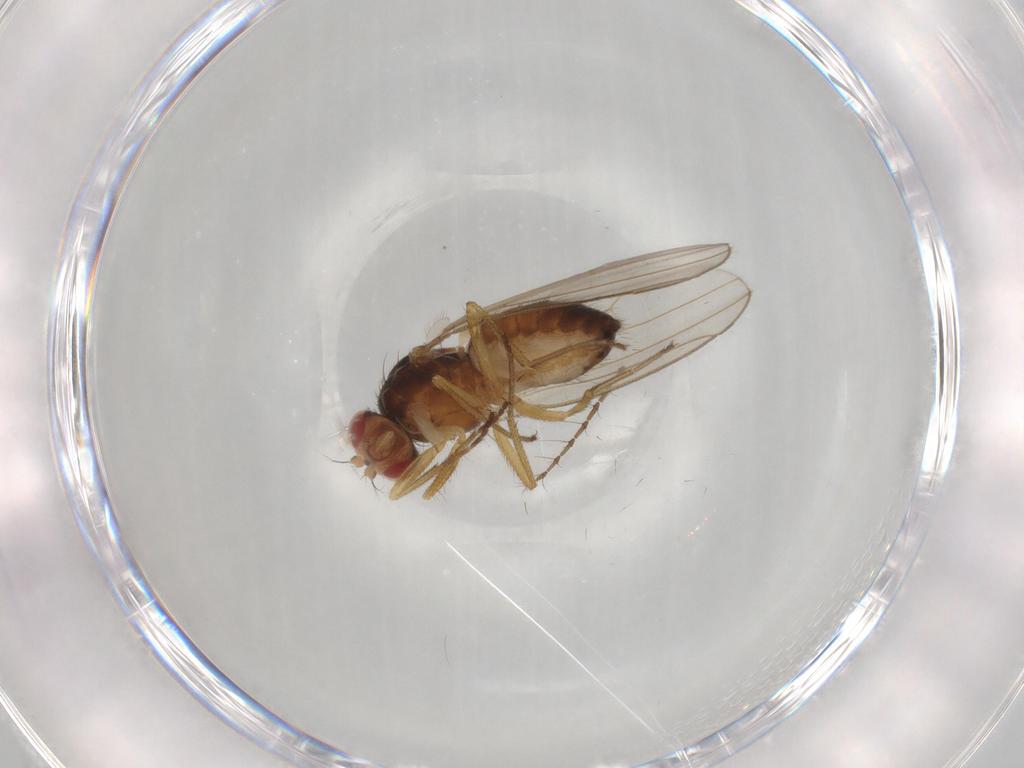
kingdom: Animalia
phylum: Arthropoda
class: Insecta
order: Diptera
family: Drosophilidae
